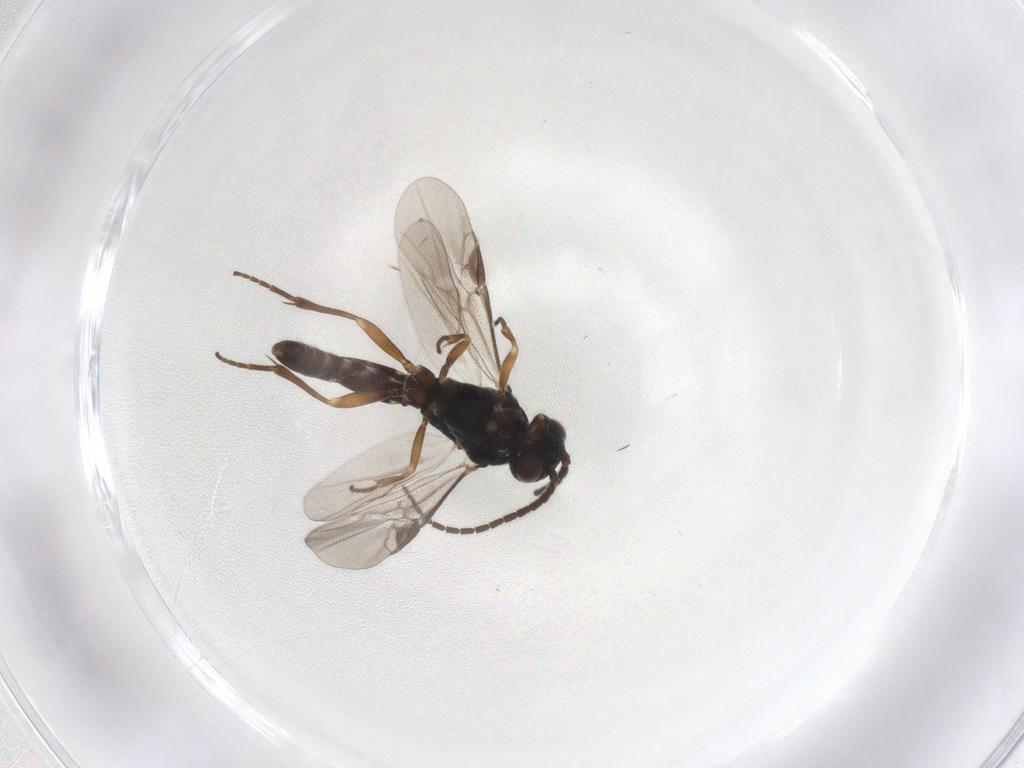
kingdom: Animalia
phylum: Arthropoda
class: Insecta
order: Hymenoptera
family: Braconidae
